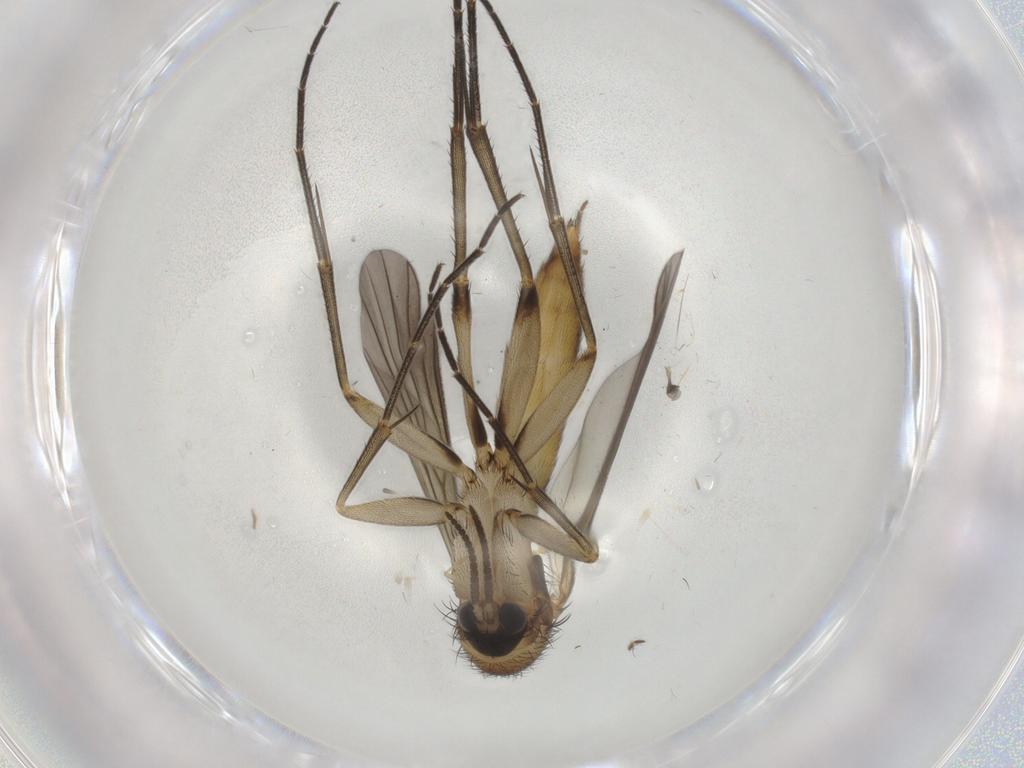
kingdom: Animalia
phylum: Arthropoda
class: Insecta
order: Diptera
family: Mycetophilidae
